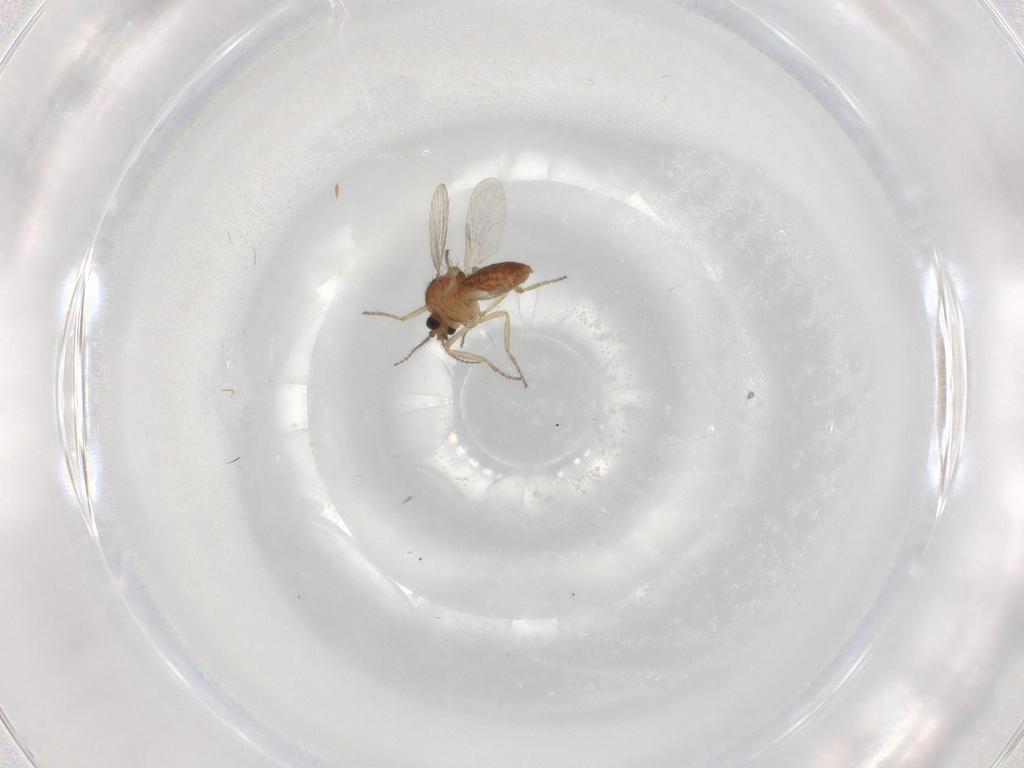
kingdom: Animalia
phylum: Arthropoda
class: Insecta
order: Diptera
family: Ceratopogonidae
